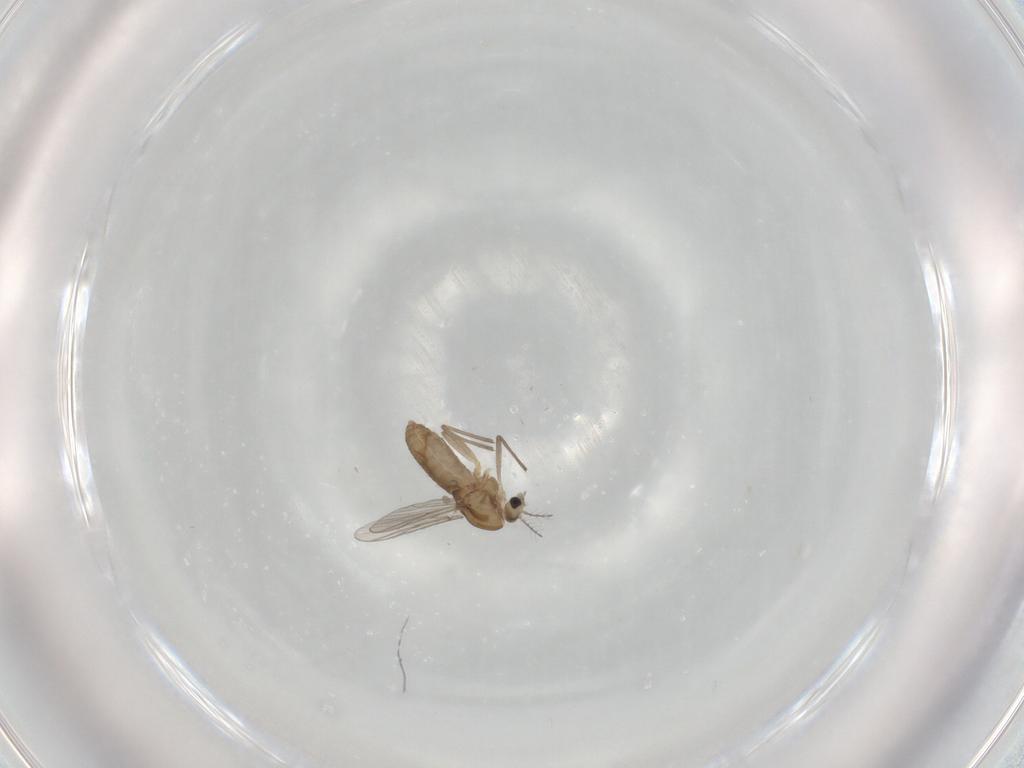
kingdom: Animalia
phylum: Arthropoda
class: Insecta
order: Diptera
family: Chironomidae
